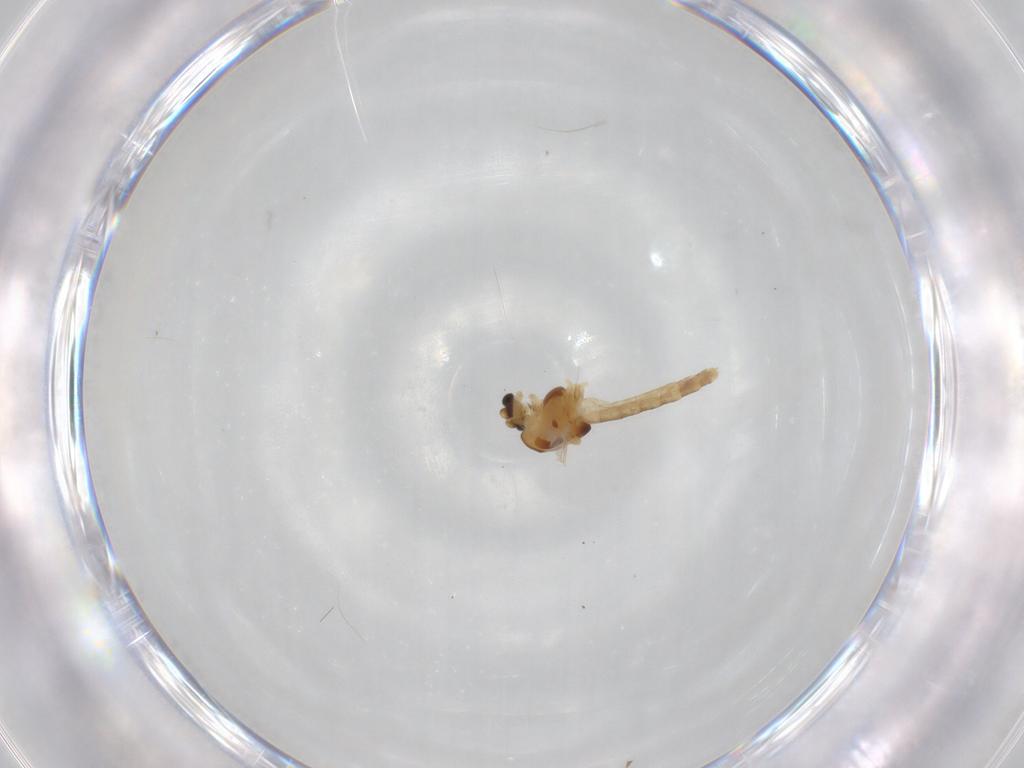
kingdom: Animalia
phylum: Arthropoda
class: Insecta
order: Diptera
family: Chironomidae
